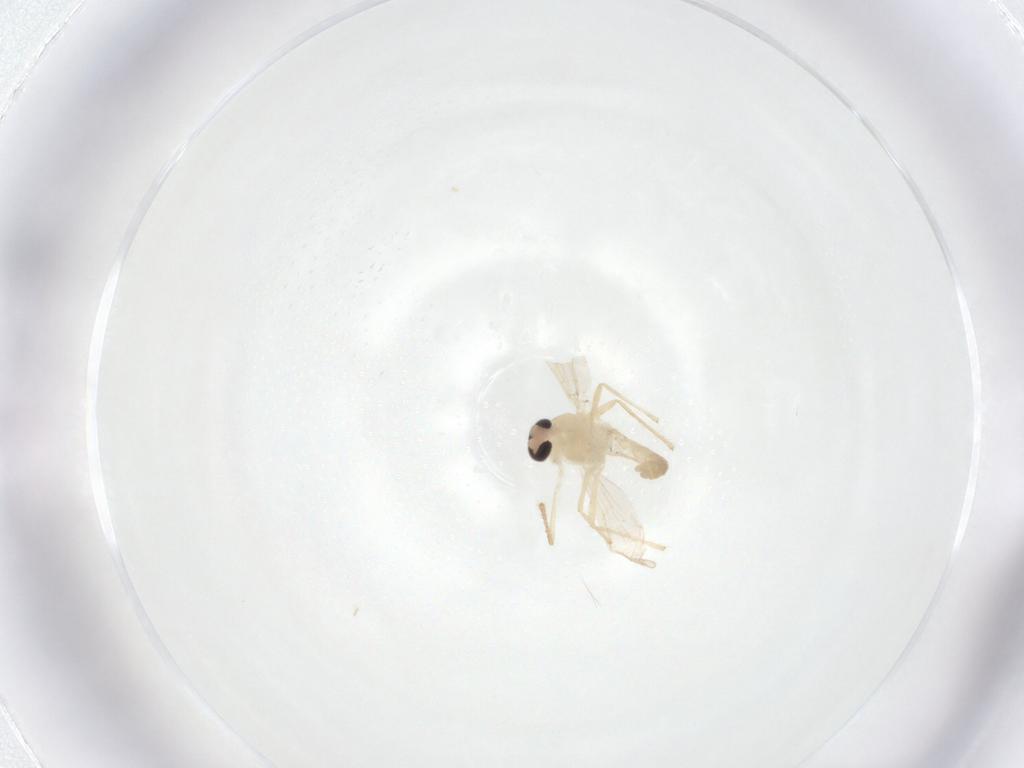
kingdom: Animalia
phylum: Arthropoda
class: Insecta
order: Diptera
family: Chironomidae
